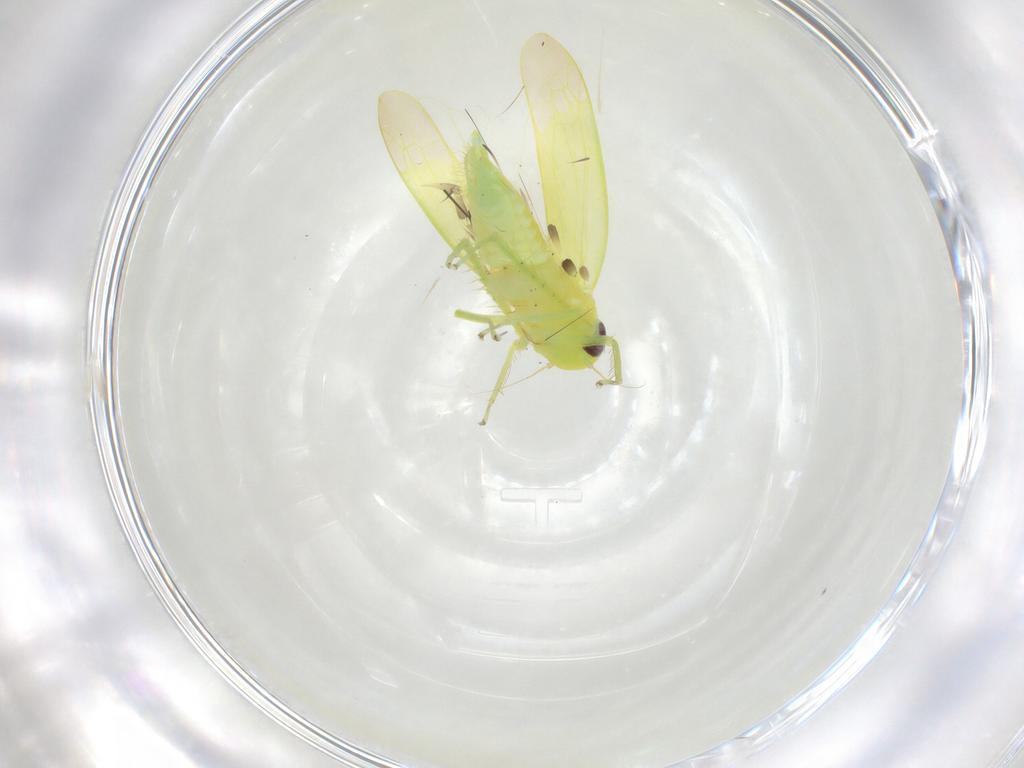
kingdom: Animalia
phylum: Arthropoda
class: Insecta
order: Hemiptera
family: Cicadellidae
